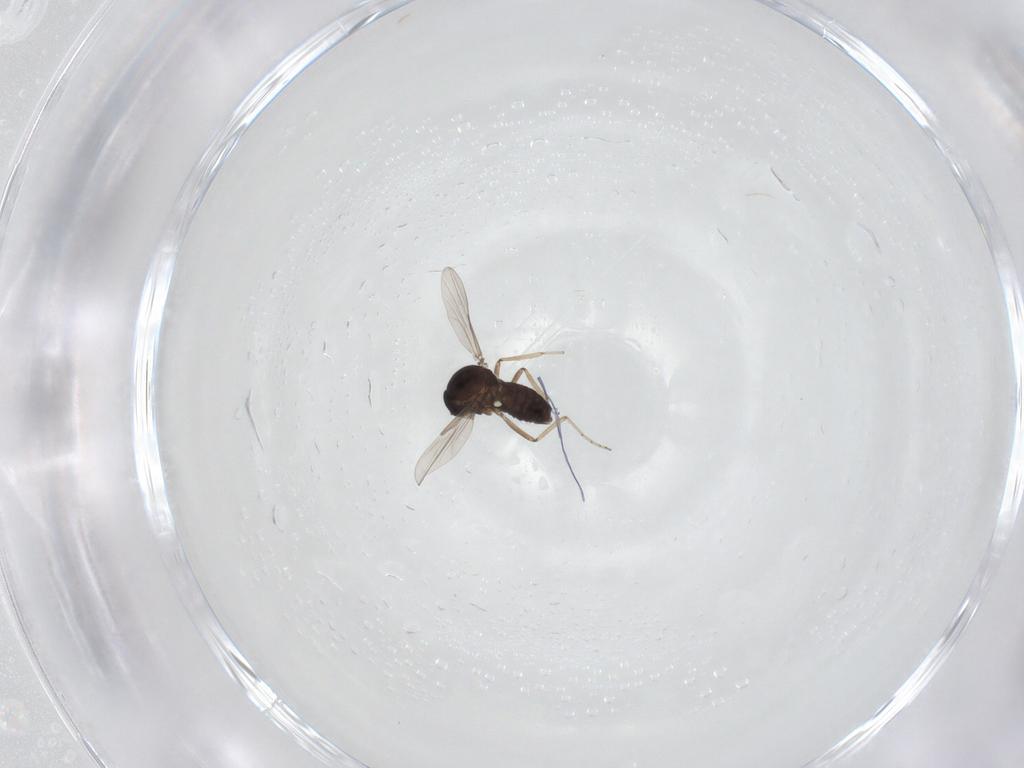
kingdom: Animalia
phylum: Arthropoda
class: Insecta
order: Diptera
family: Ceratopogonidae
